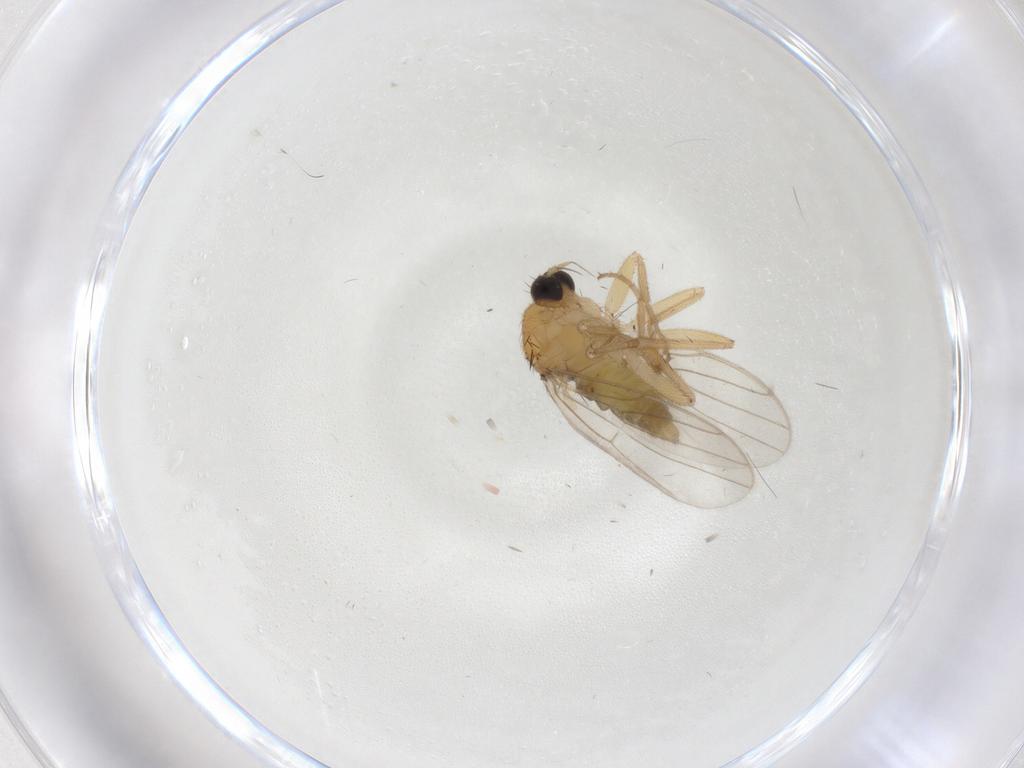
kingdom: Animalia
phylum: Arthropoda
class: Insecta
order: Diptera
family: Hybotidae
